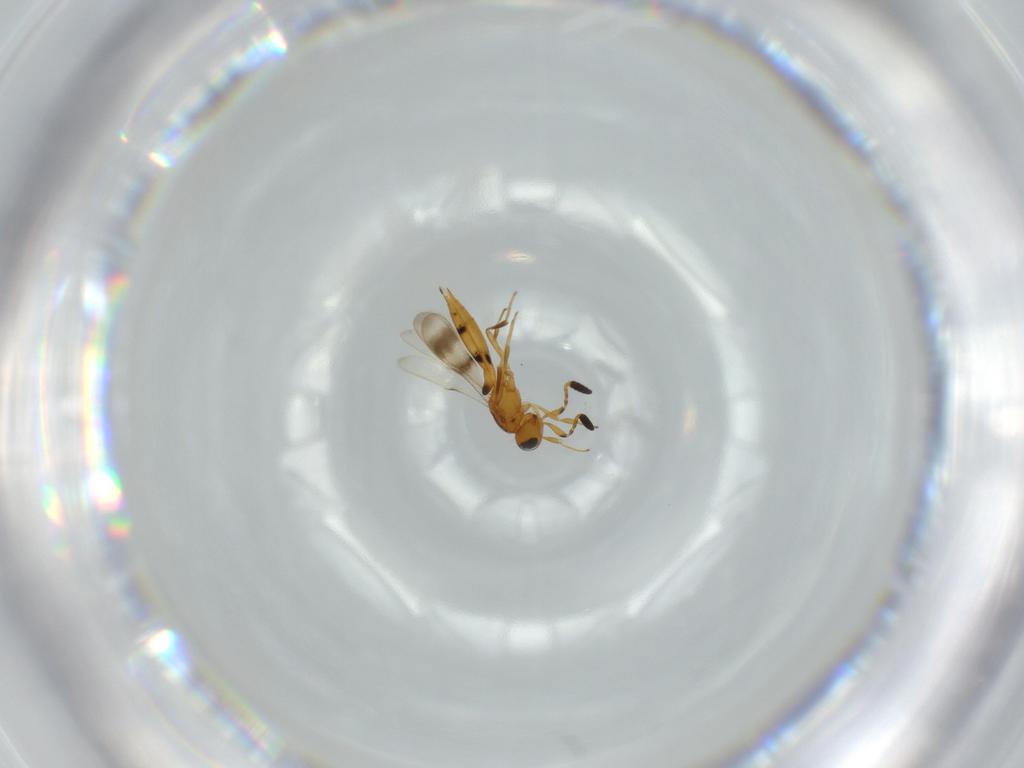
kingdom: Animalia
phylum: Arthropoda
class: Insecta
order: Hymenoptera
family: Scelionidae
